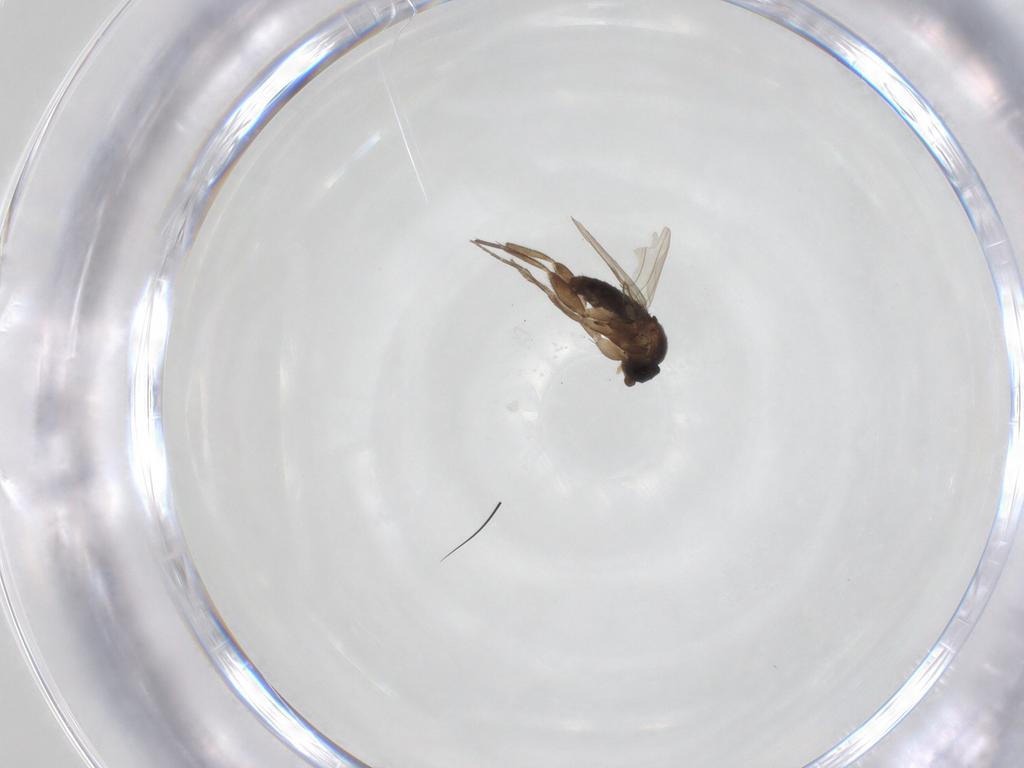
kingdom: Animalia
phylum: Arthropoda
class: Insecta
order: Diptera
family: Phoridae
